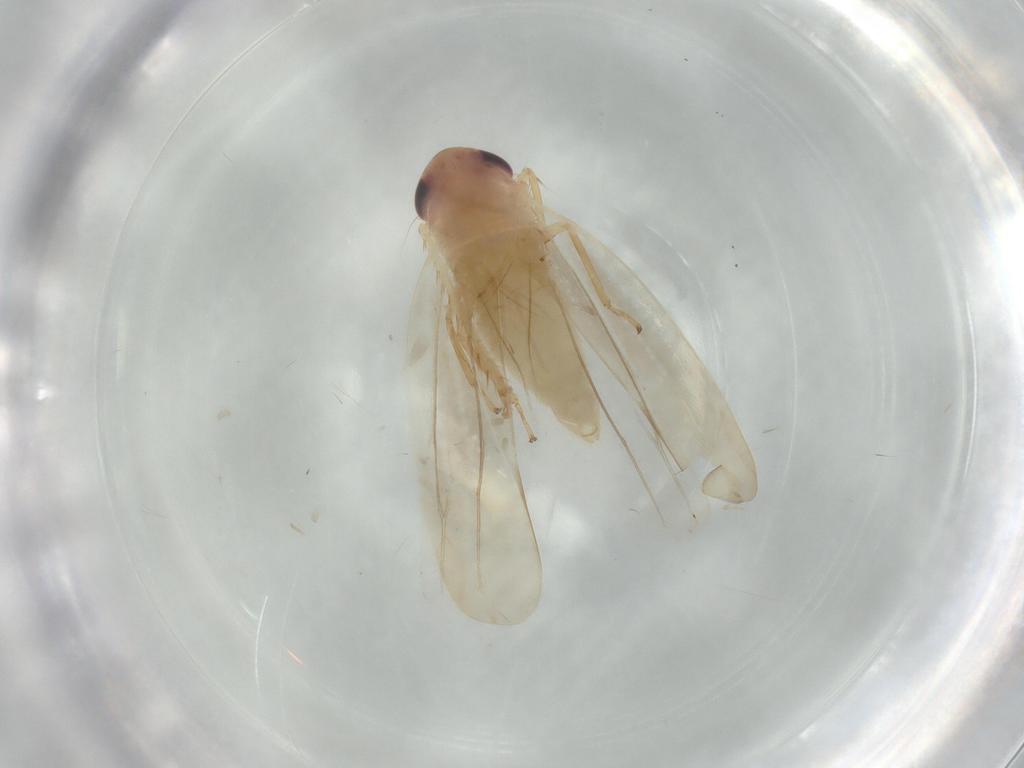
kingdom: Animalia
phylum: Arthropoda
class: Insecta
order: Hemiptera
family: Cicadellidae
